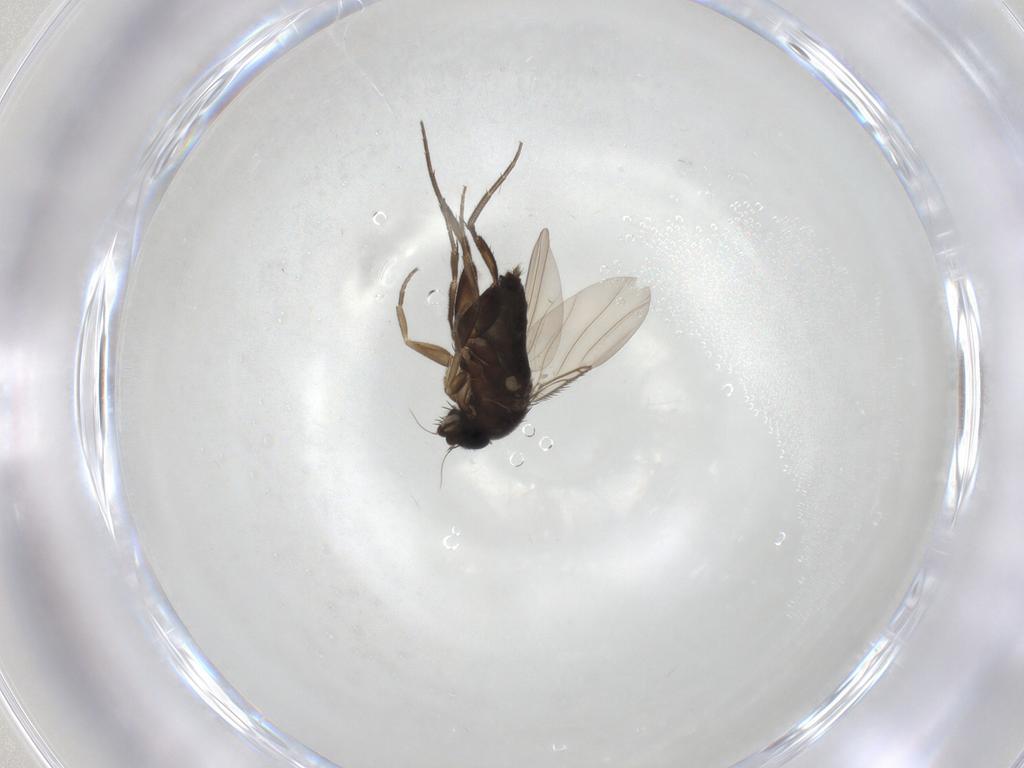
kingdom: Animalia
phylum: Arthropoda
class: Insecta
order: Diptera
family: Phoridae
